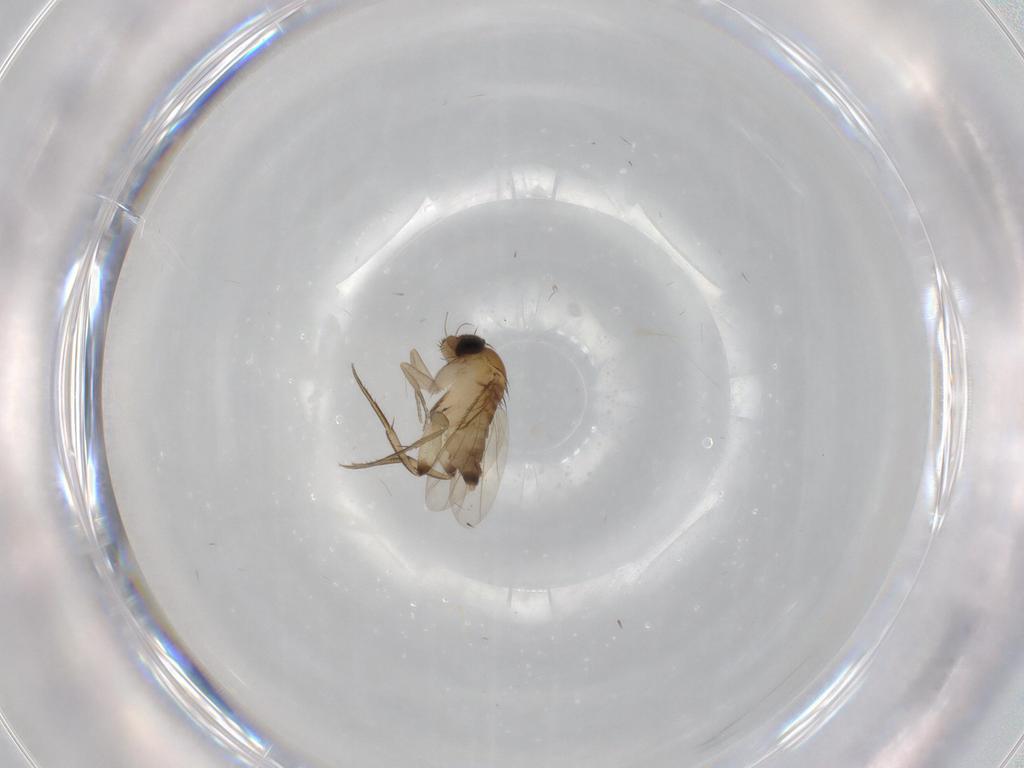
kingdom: Animalia
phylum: Arthropoda
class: Insecta
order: Diptera
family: Phoridae
